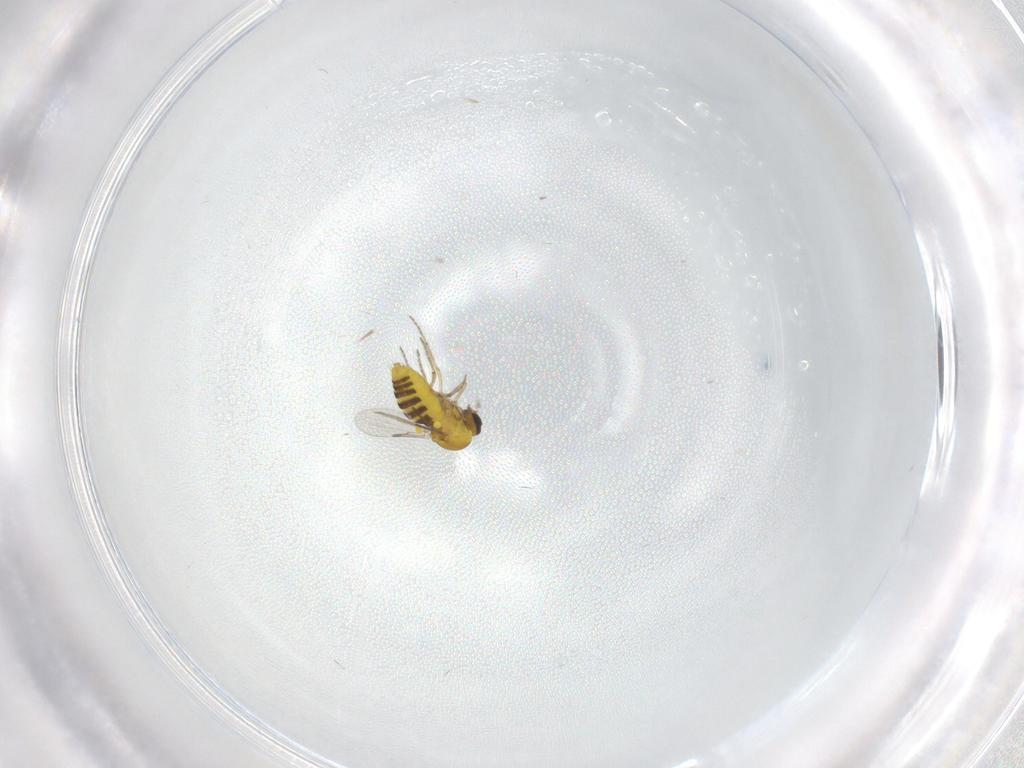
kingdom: Animalia
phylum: Arthropoda
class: Insecta
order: Diptera
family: Ceratopogonidae
